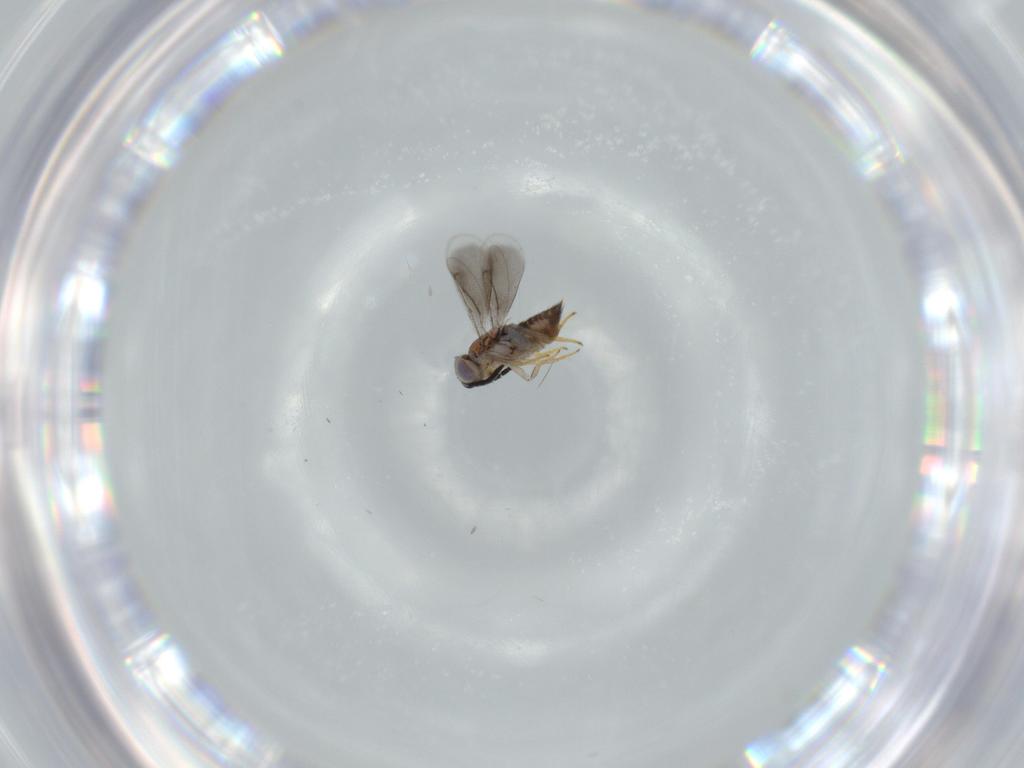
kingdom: Animalia
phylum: Arthropoda
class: Insecta
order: Hymenoptera
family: Aphelinidae
